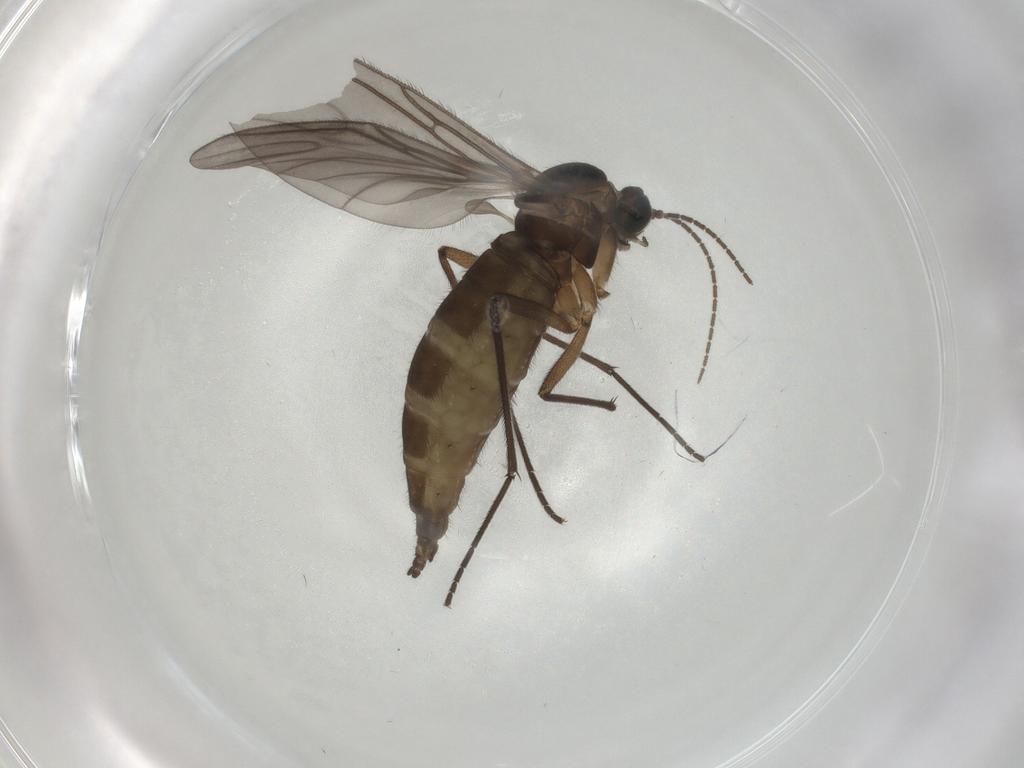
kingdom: Animalia
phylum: Arthropoda
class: Insecta
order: Diptera
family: Sciaridae
